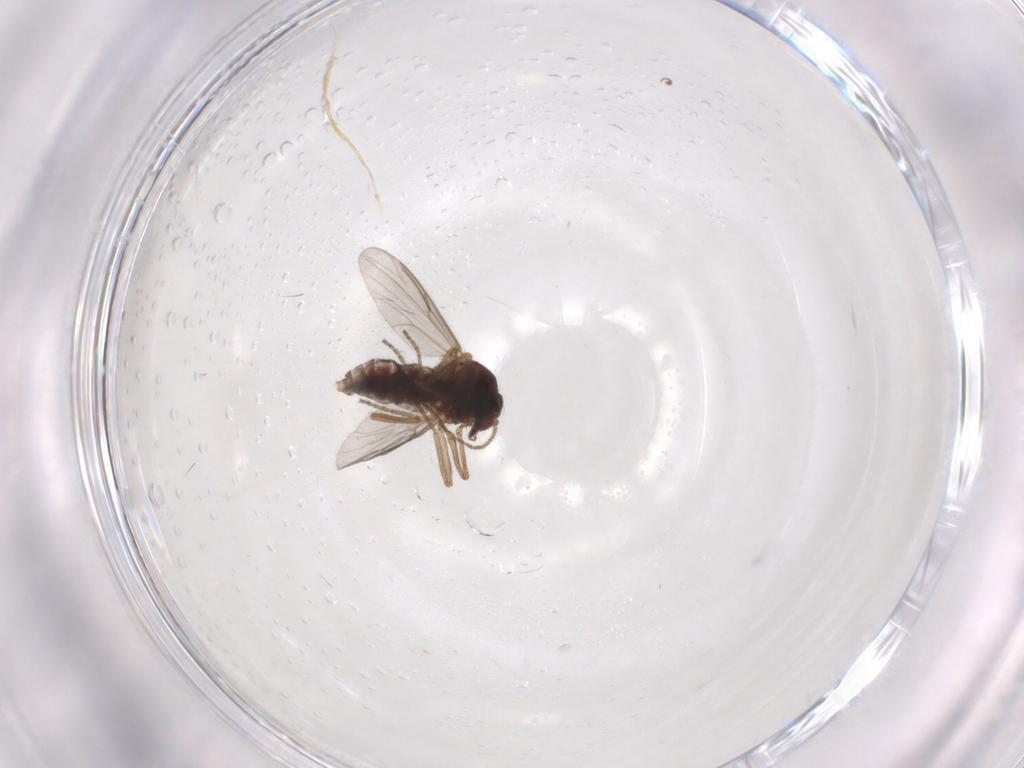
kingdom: Animalia
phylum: Arthropoda
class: Insecta
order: Diptera
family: Ceratopogonidae
